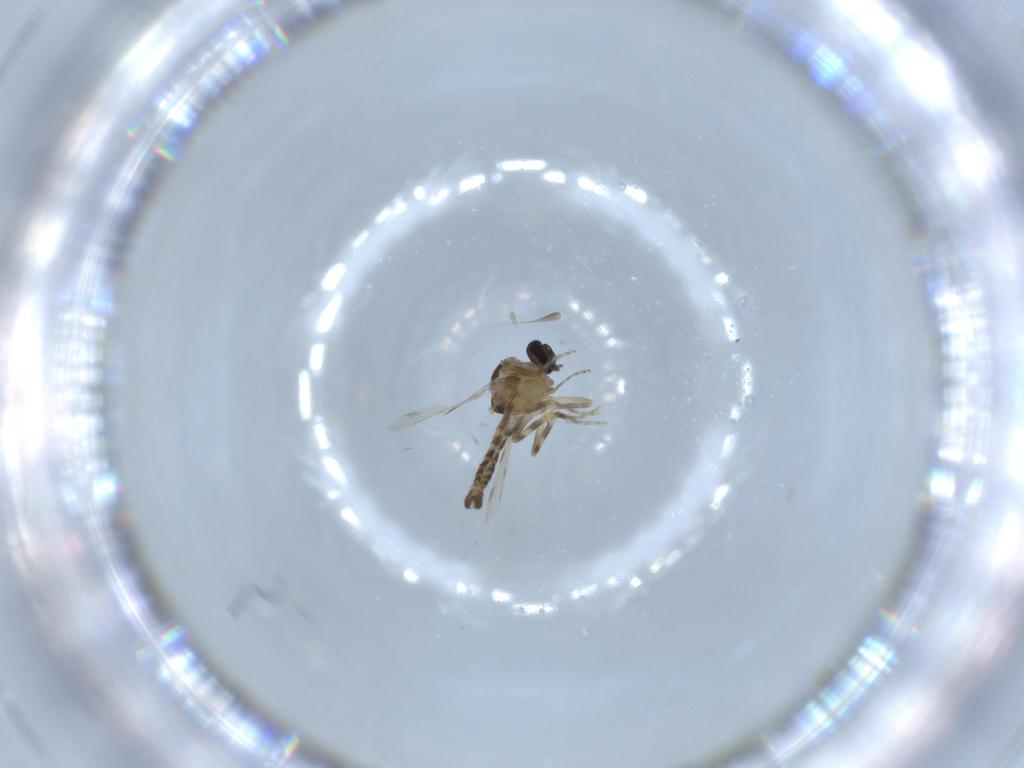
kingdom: Animalia
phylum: Arthropoda
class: Insecta
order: Diptera
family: Ceratopogonidae
